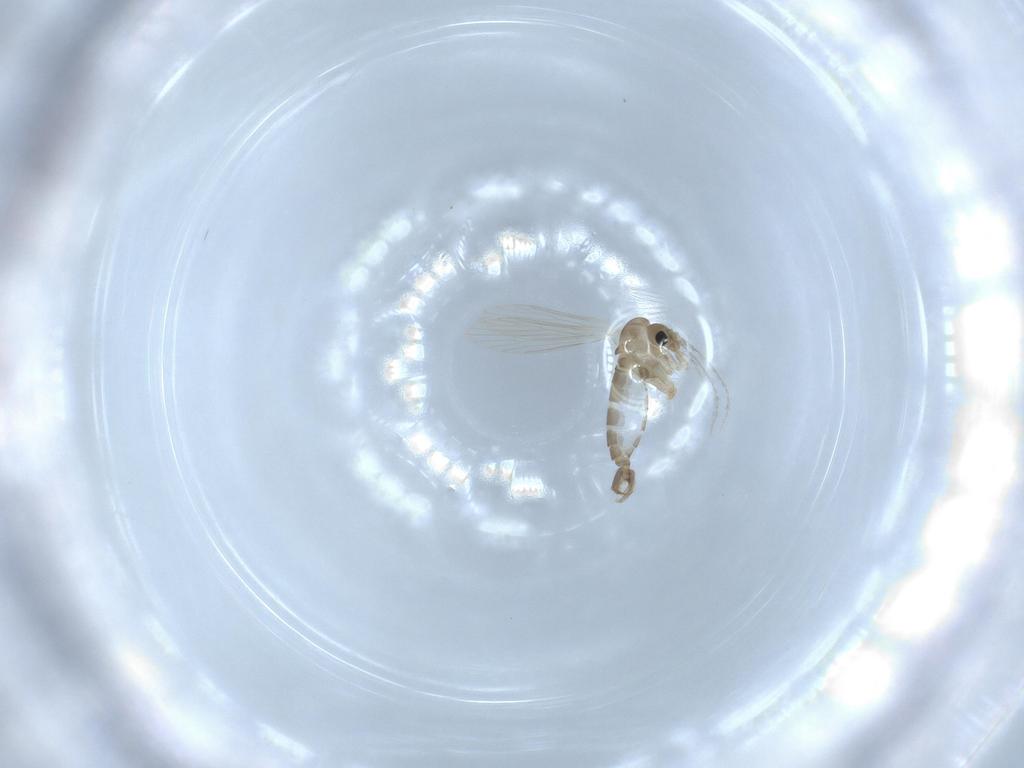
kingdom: Animalia
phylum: Arthropoda
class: Insecta
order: Diptera
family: Psychodidae
